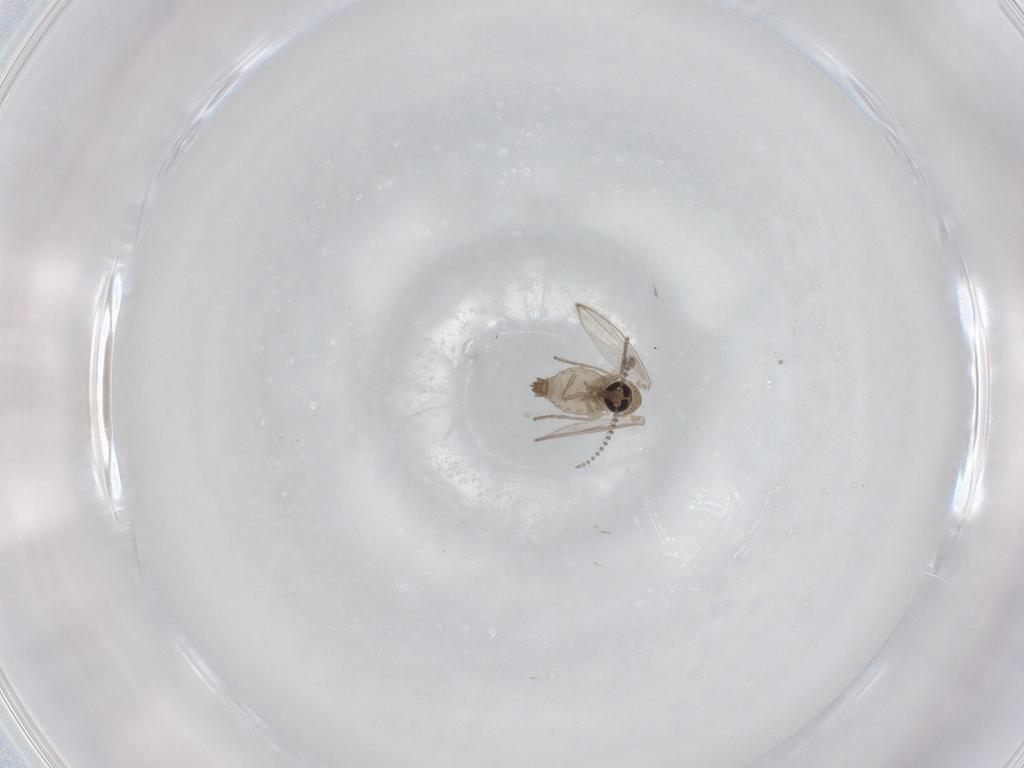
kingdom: Animalia
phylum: Arthropoda
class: Insecta
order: Diptera
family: Psychodidae
